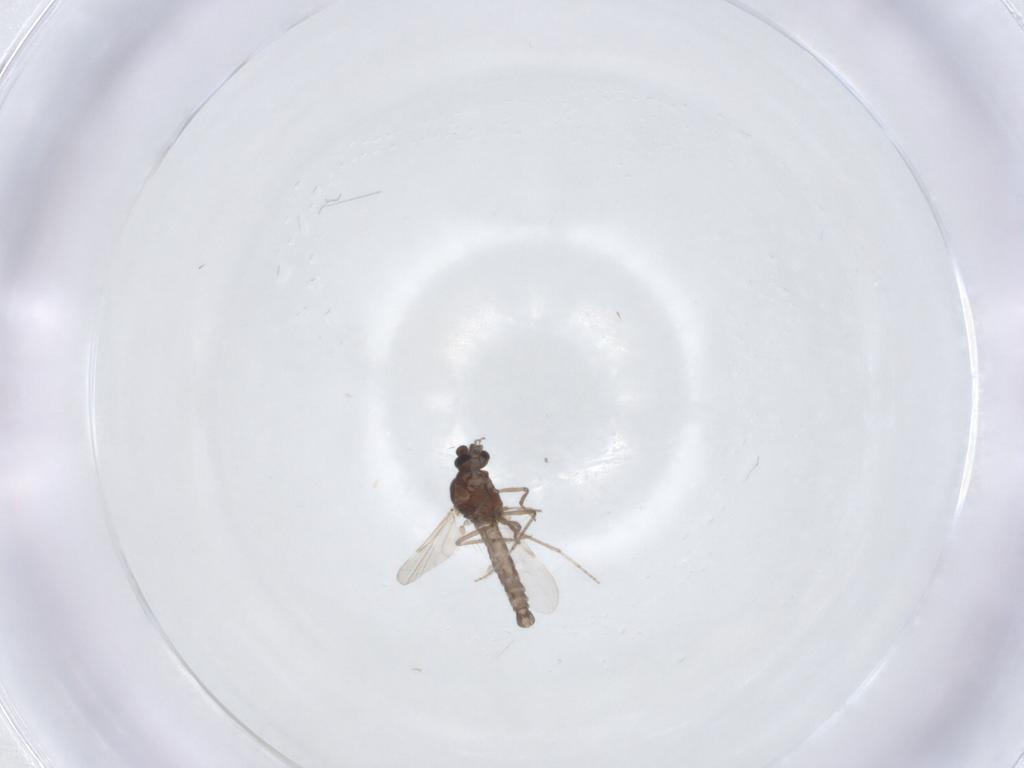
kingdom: Animalia
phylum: Arthropoda
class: Insecta
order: Diptera
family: Ceratopogonidae
